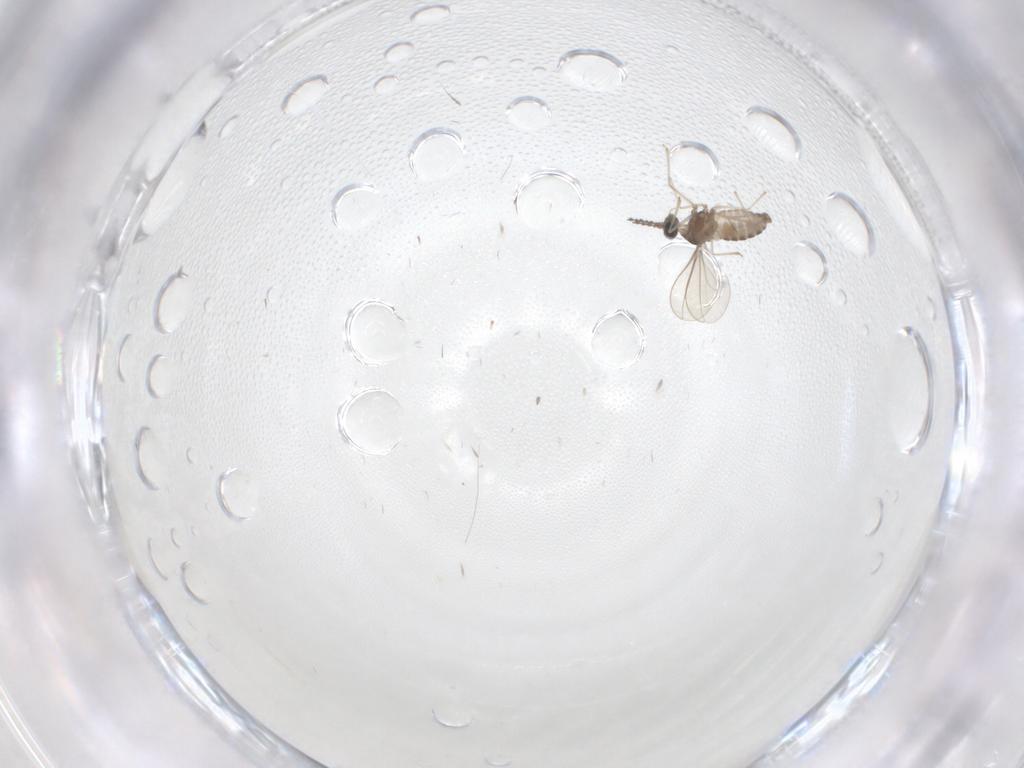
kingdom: Animalia
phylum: Arthropoda
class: Insecta
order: Diptera
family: Cecidomyiidae
